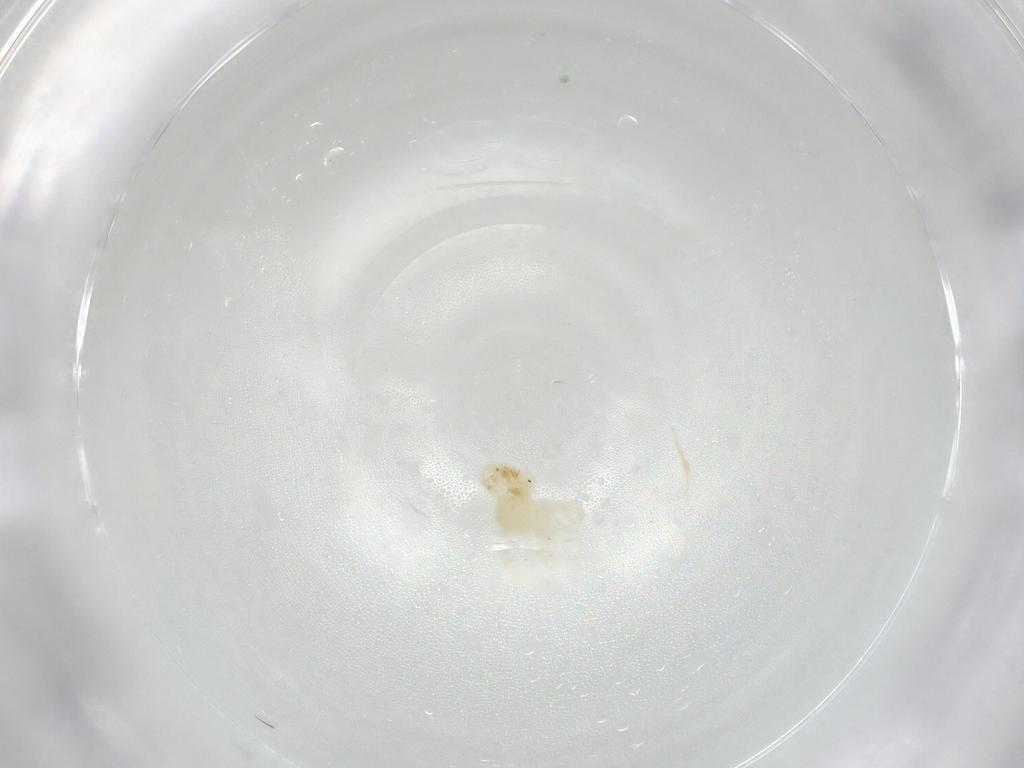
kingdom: Animalia
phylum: Arthropoda
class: Arachnida
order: Trombidiformes
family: Anystidae
